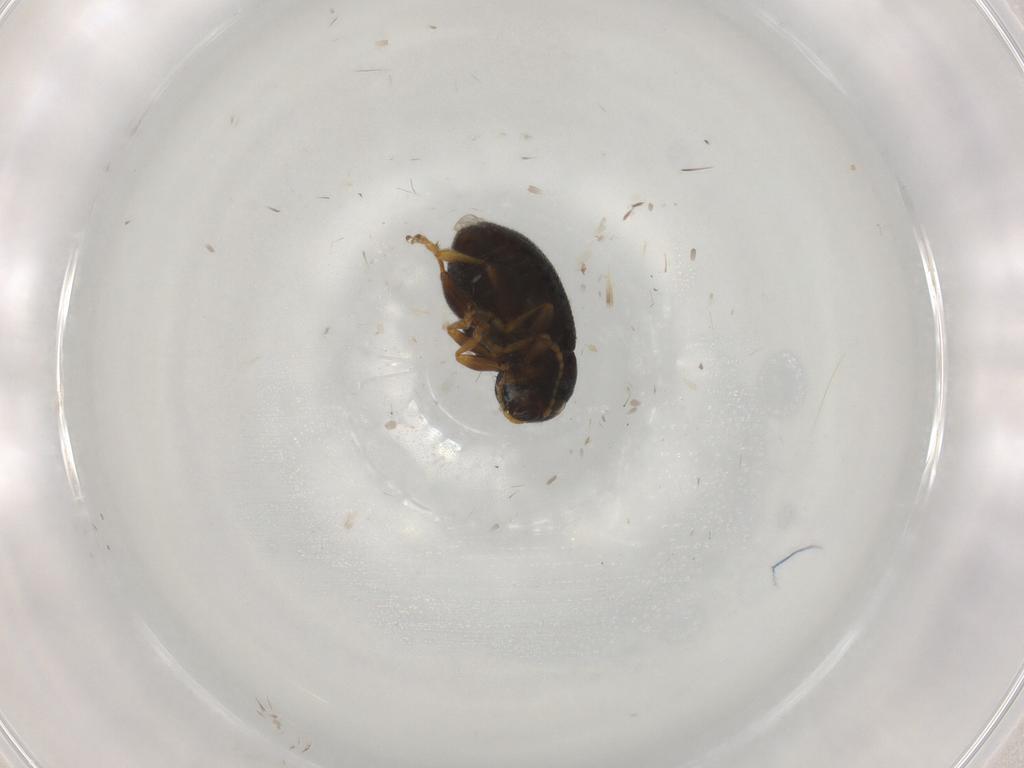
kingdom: Animalia
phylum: Arthropoda
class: Insecta
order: Coleoptera
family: Chrysomelidae
